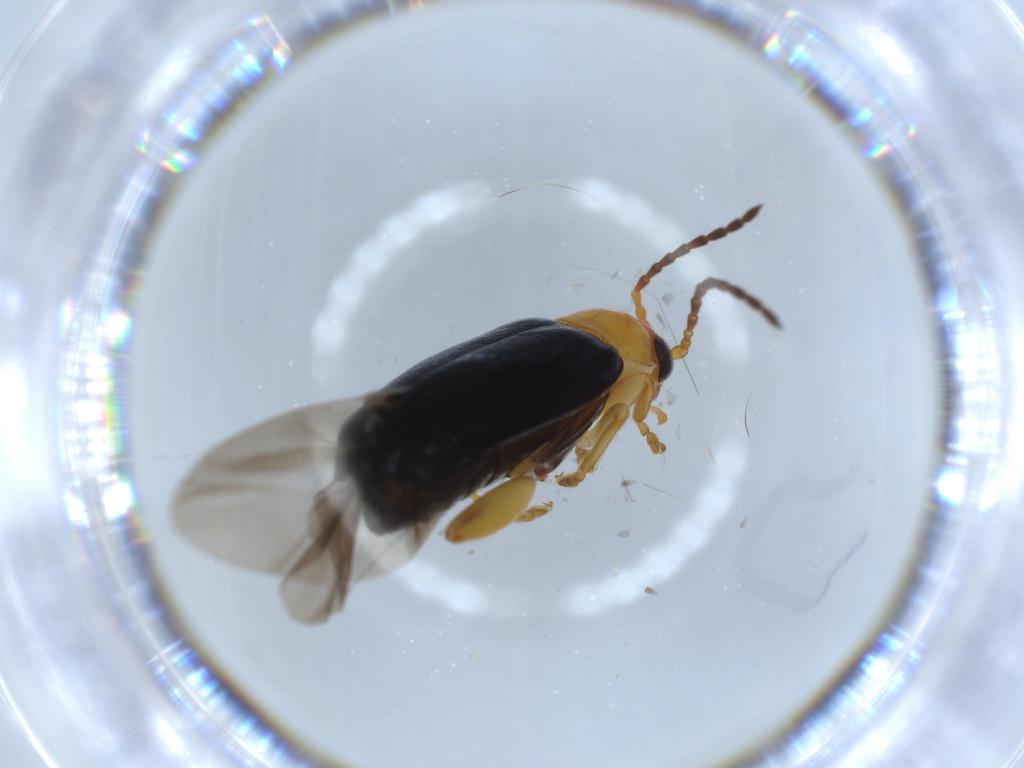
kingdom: Animalia
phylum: Arthropoda
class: Insecta
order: Coleoptera
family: Chrysomelidae
